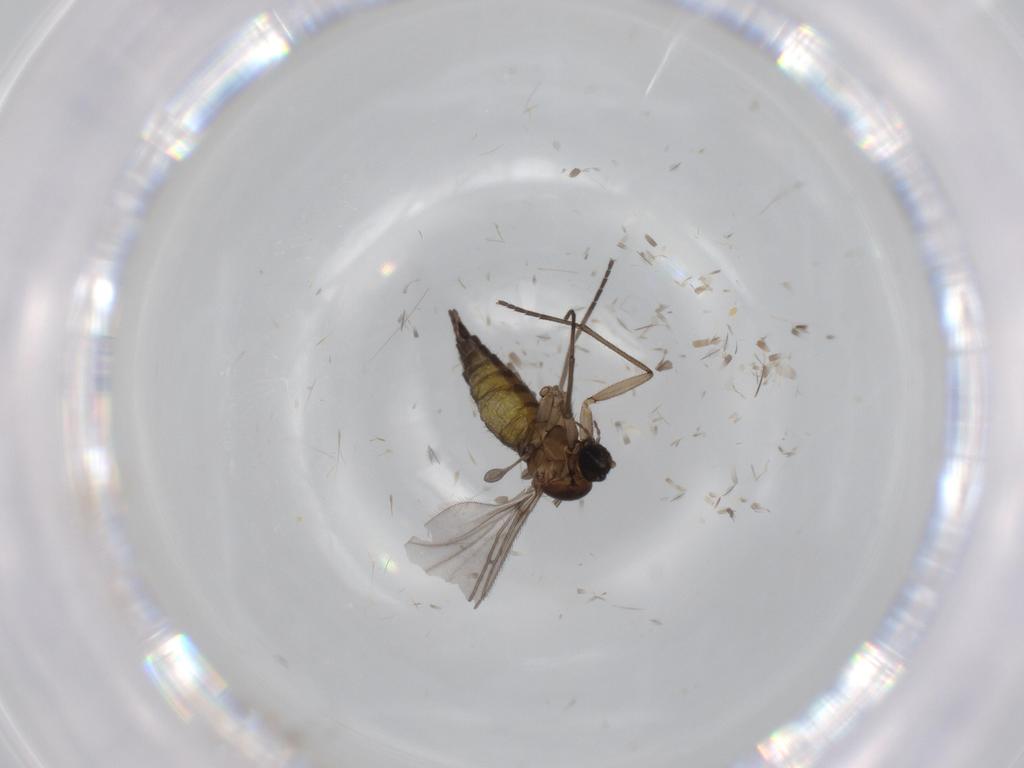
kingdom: Animalia
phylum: Arthropoda
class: Insecta
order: Diptera
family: Sciaridae
